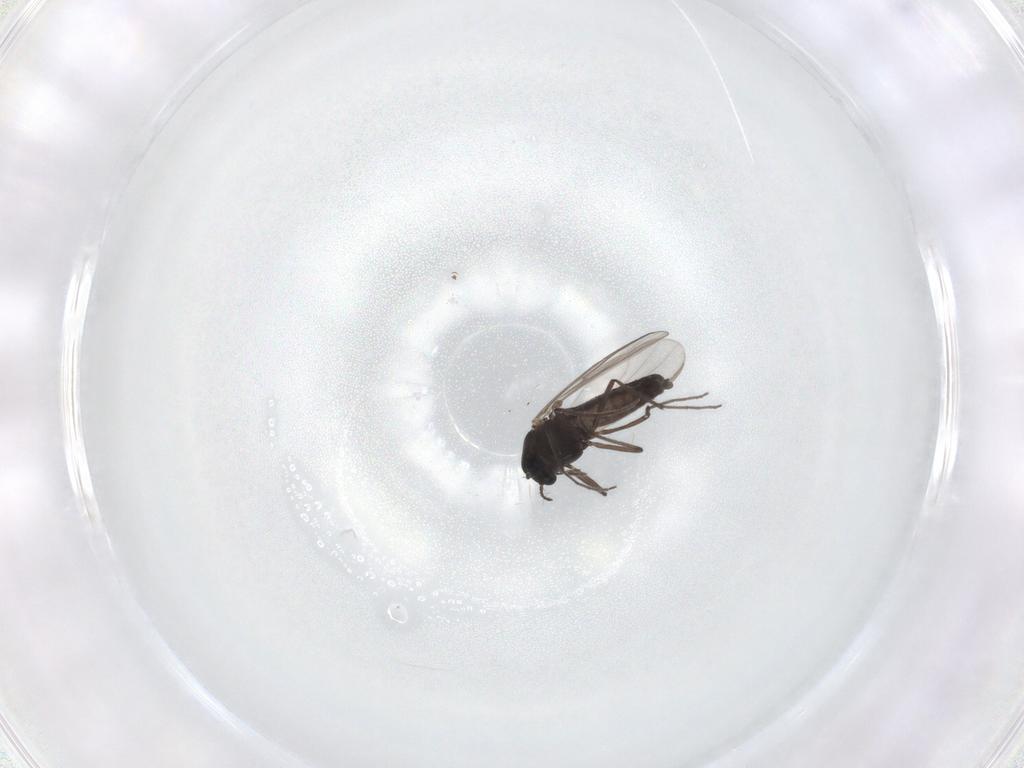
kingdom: Animalia
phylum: Arthropoda
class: Insecta
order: Diptera
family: Chironomidae
